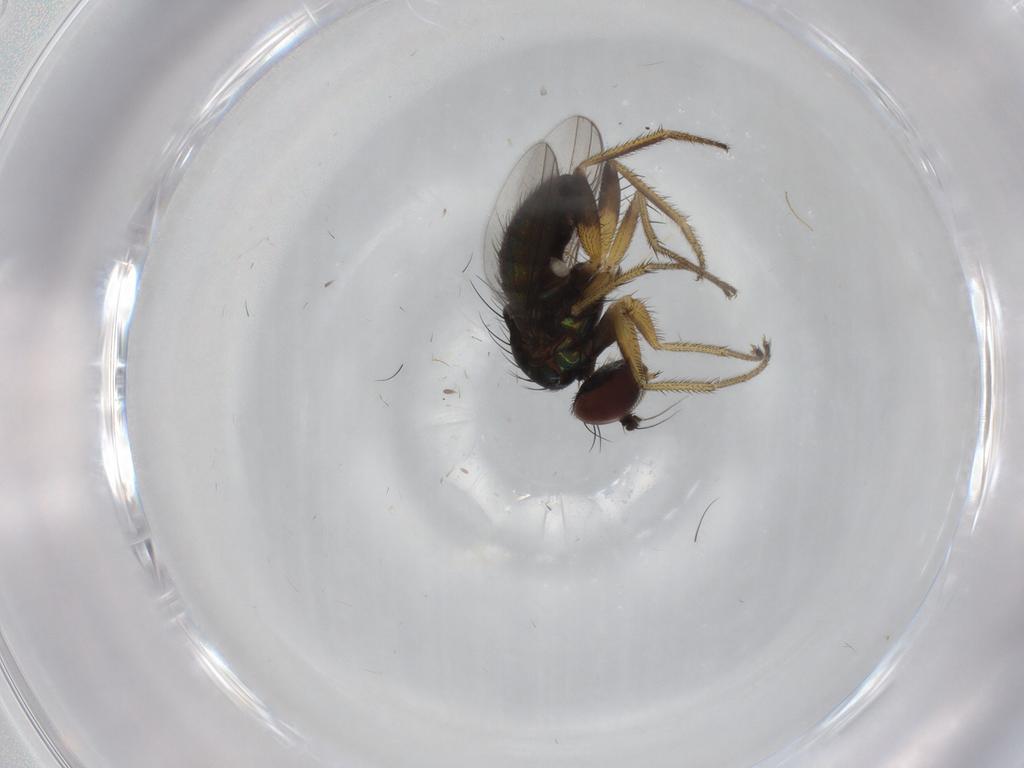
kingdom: Animalia
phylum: Arthropoda
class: Insecta
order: Diptera
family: Dolichopodidae
